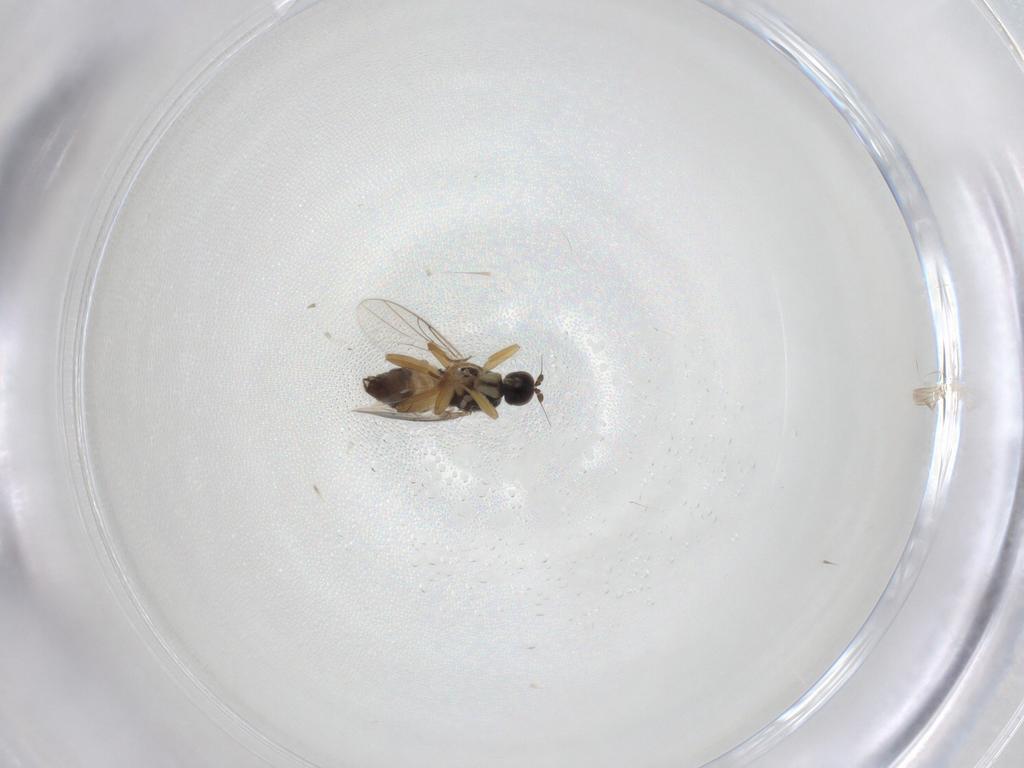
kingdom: Animalia
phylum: Arthropoda
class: Insecta
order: Diptera
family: Hybotidae
